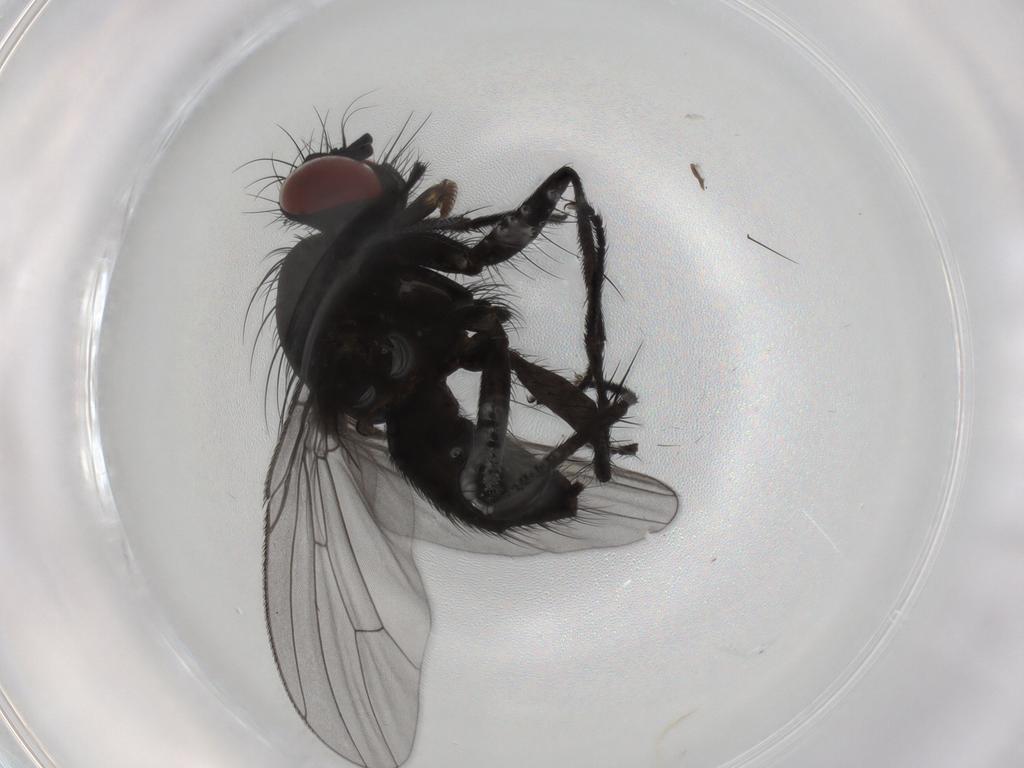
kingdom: Animalia
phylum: Arthropoda
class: Insecta
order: Diptera
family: Muscidae
